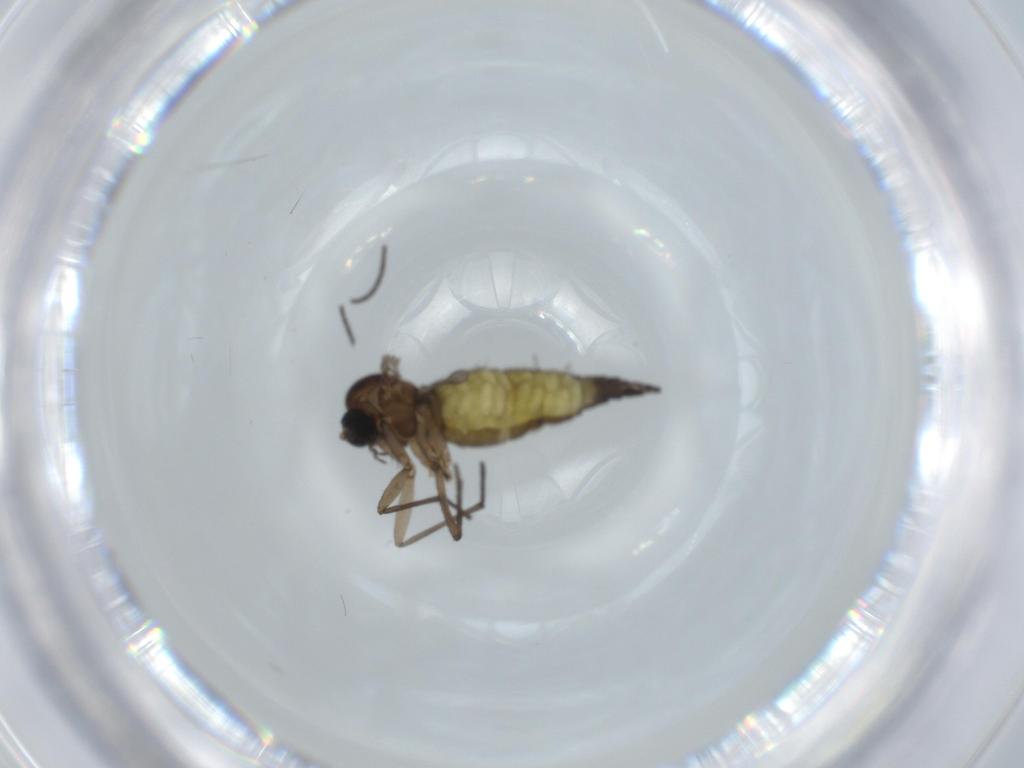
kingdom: Animalia
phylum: Arthropoda
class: Insecta
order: Diptera
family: Sciaridae
